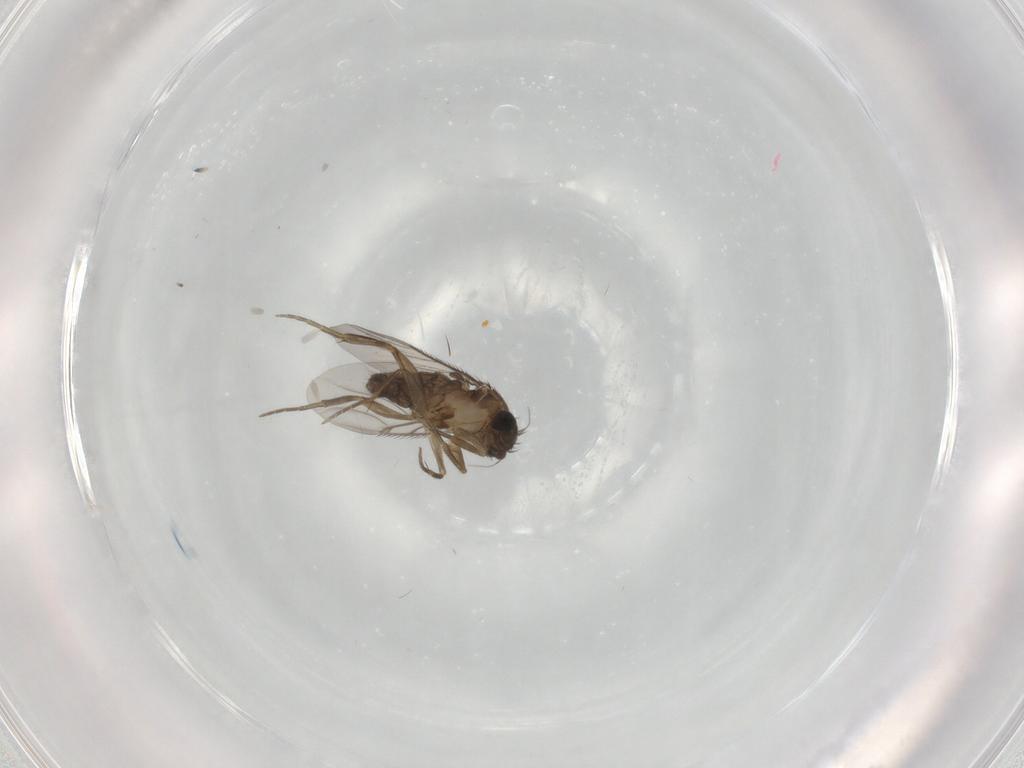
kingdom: Animalia
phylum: Arthropoda
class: Insecta
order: Diptera
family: Phoridae
